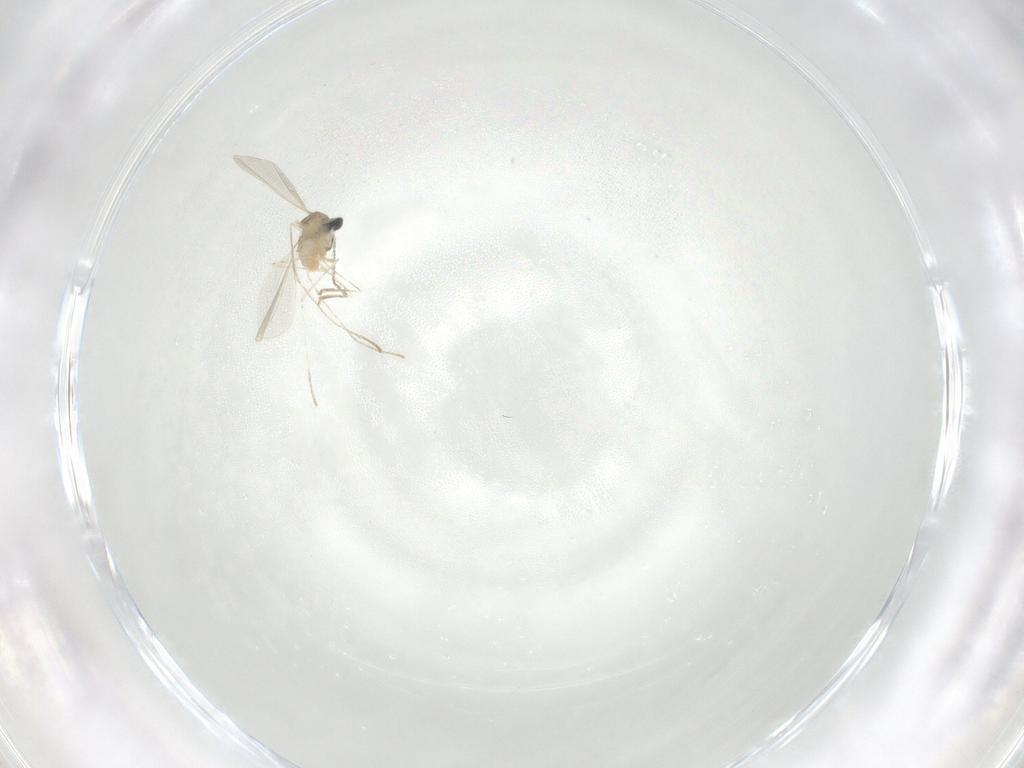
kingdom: Animalia
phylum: Arthropoda
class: Insecta
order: Diptera
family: Cecidomyiidae
